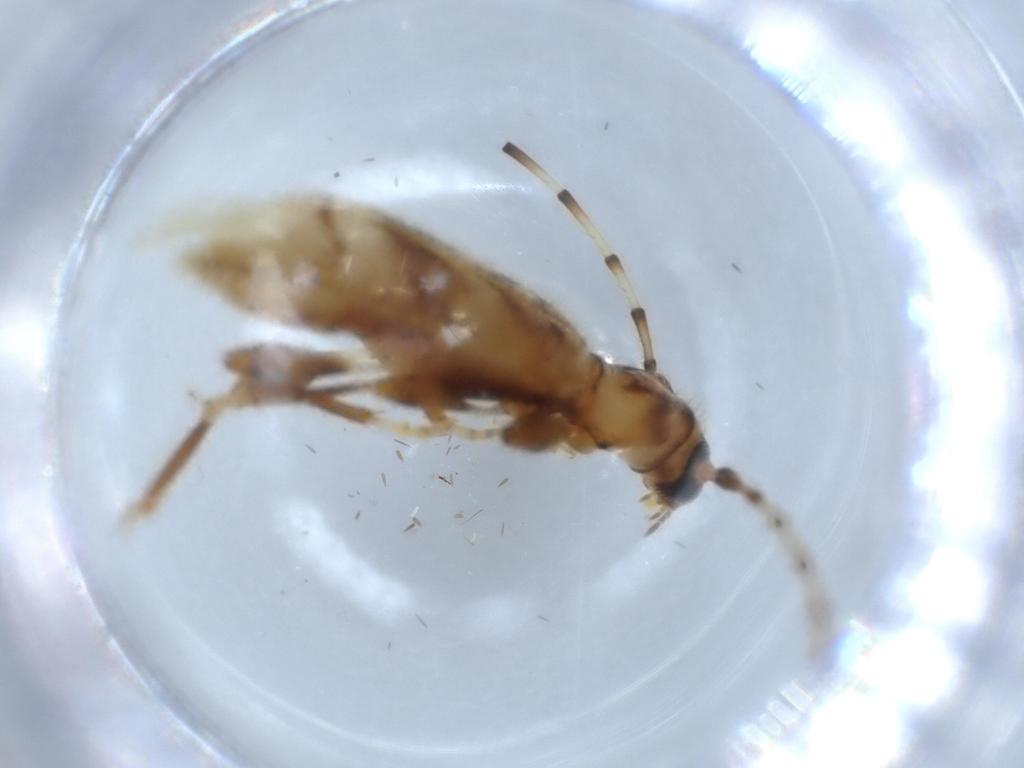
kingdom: Animalia
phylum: Arthropoda
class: Insecta
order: Coleoptera
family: Cerambycidae
